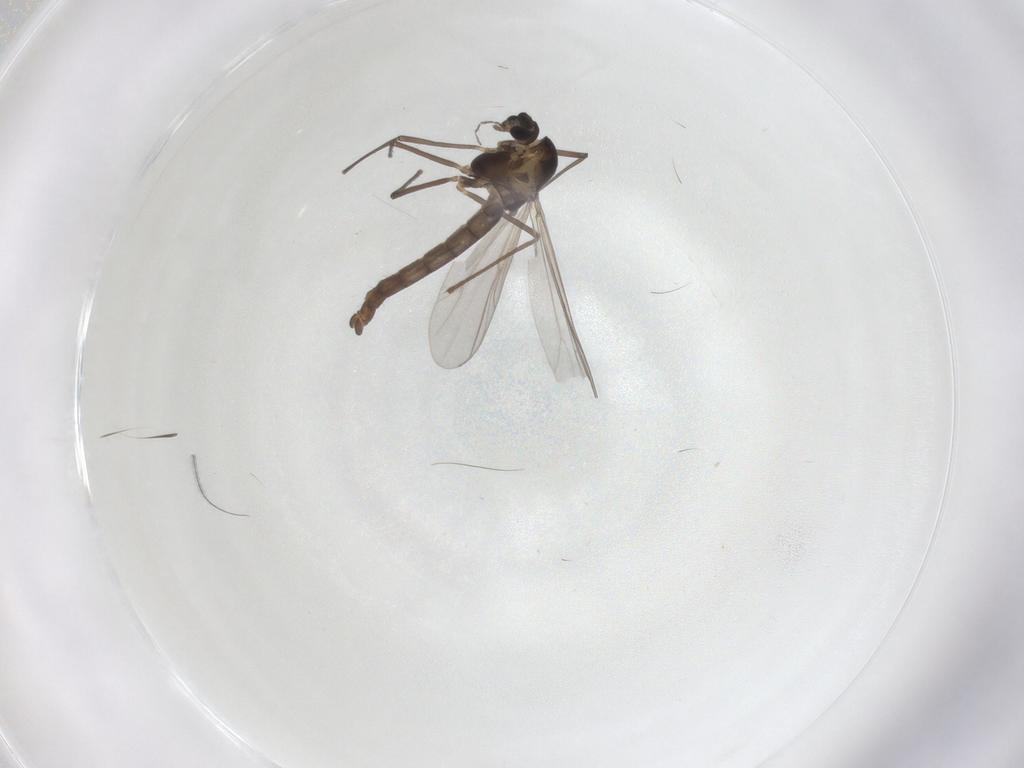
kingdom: Animalia
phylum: Arthropoda
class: Insecta
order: Diptera
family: Chironomidae
